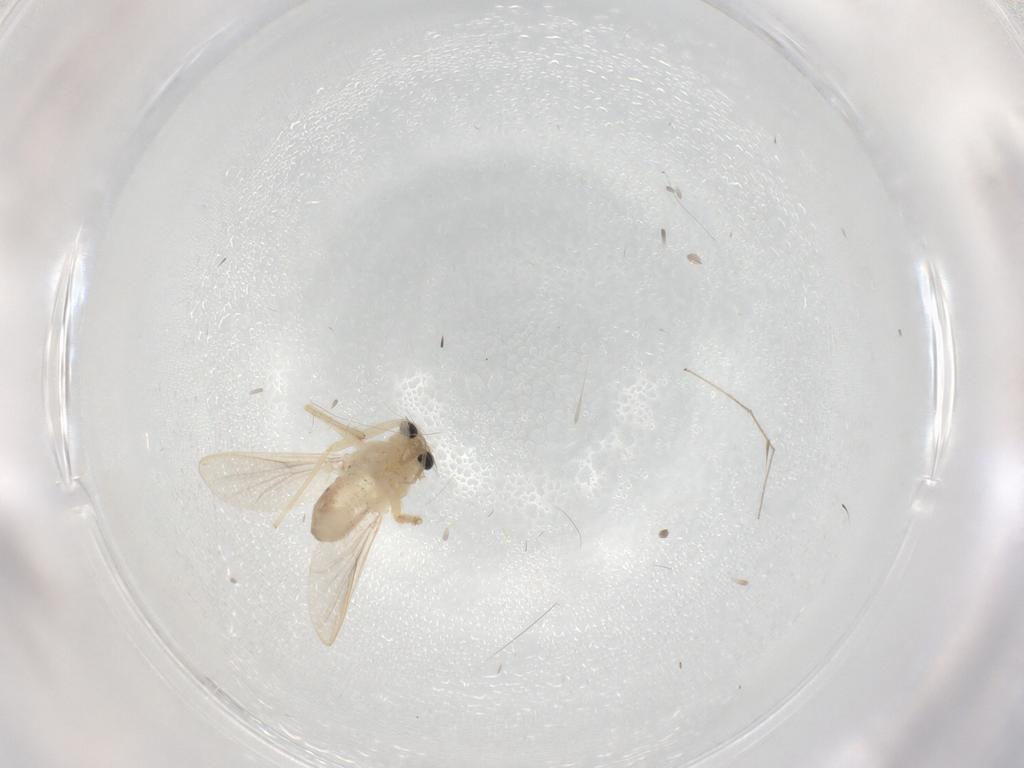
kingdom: Animalia
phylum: Arthropoda
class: Insecta
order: Diptera
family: Chironomidae
